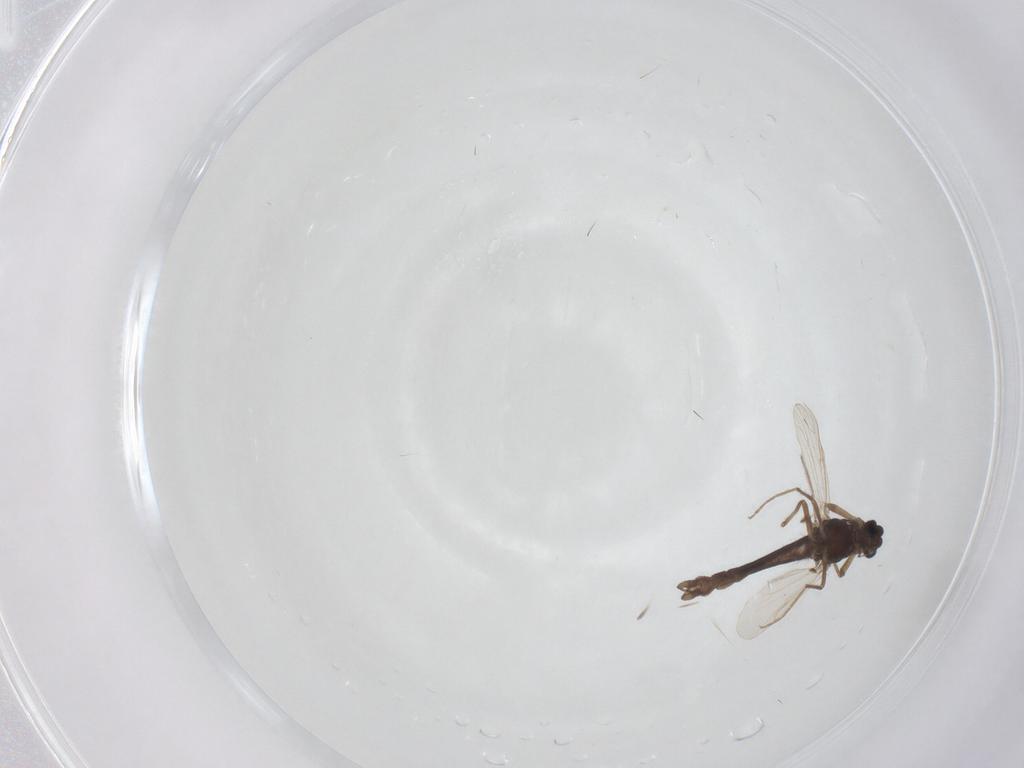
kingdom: Animalia
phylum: Arthropoda
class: Insecta
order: Diptera
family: Chironomidae
